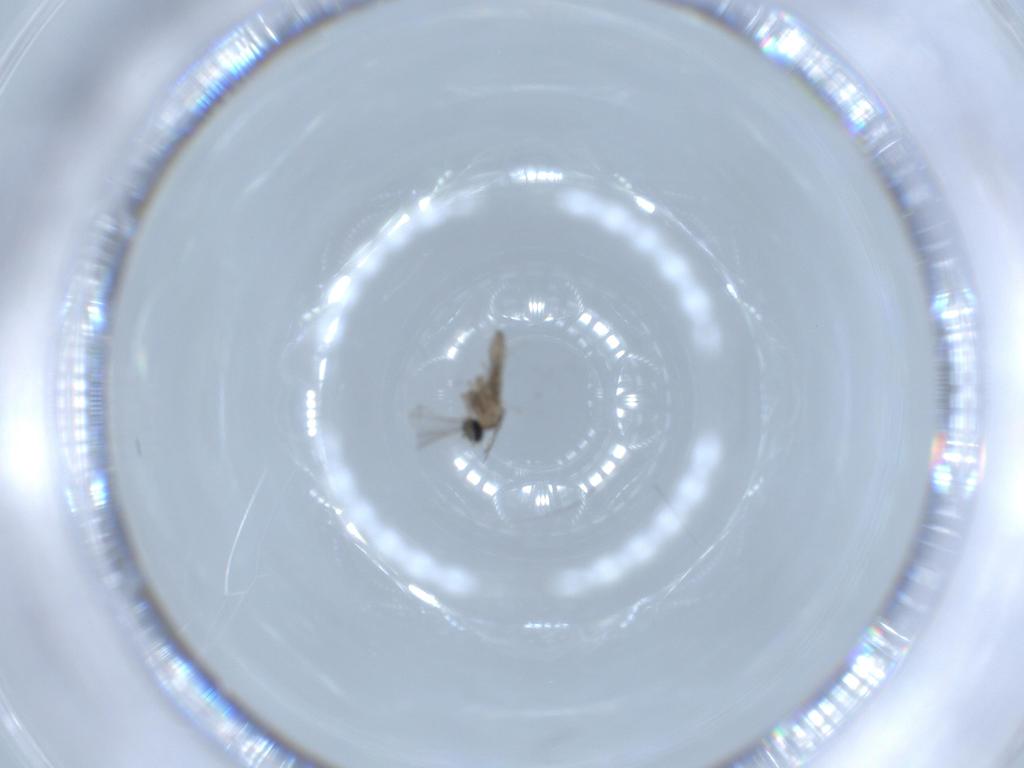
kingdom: Animalia
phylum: Arthropoda
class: Insecta
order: Diptera
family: Cecidomyiidae
